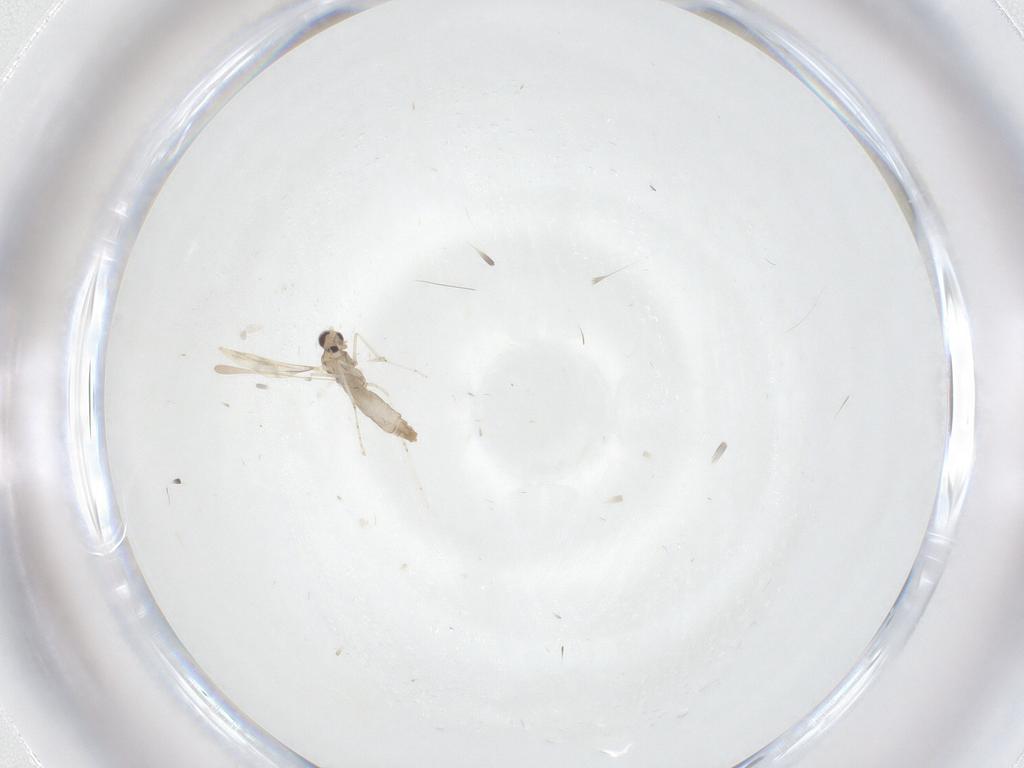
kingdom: Animalia
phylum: Arthropoda
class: Insecta
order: Diptera
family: Cecidomyiidae
